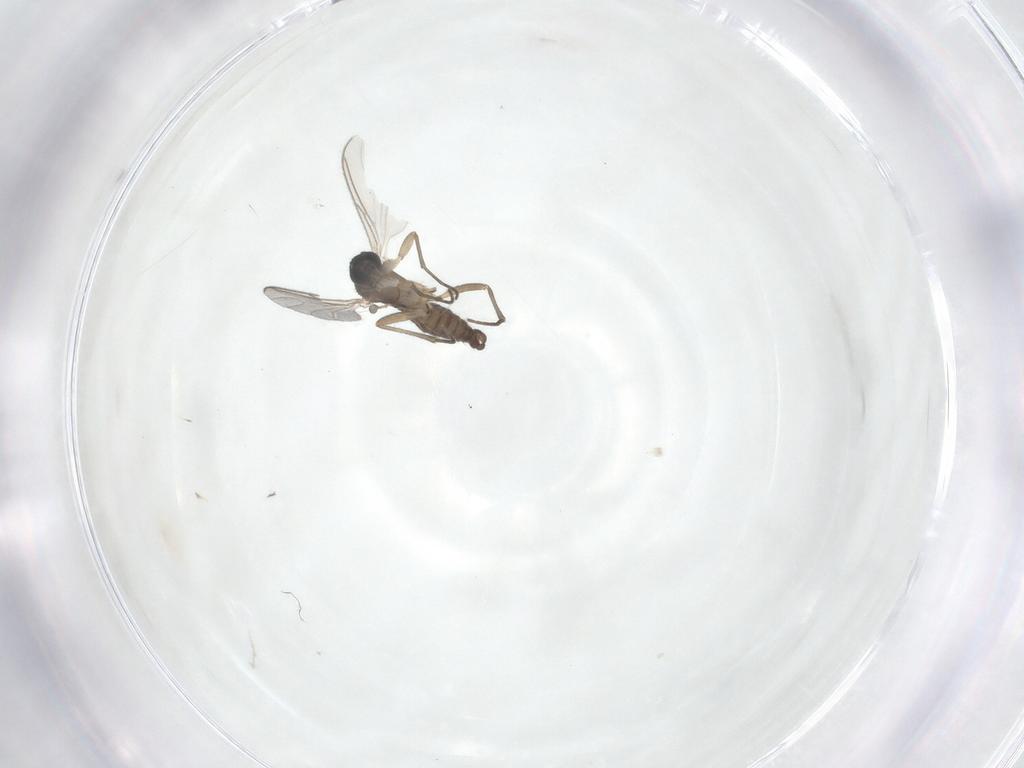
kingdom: Animalia
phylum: Arthropoda
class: Insecta
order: Diptera
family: Sciaridae
